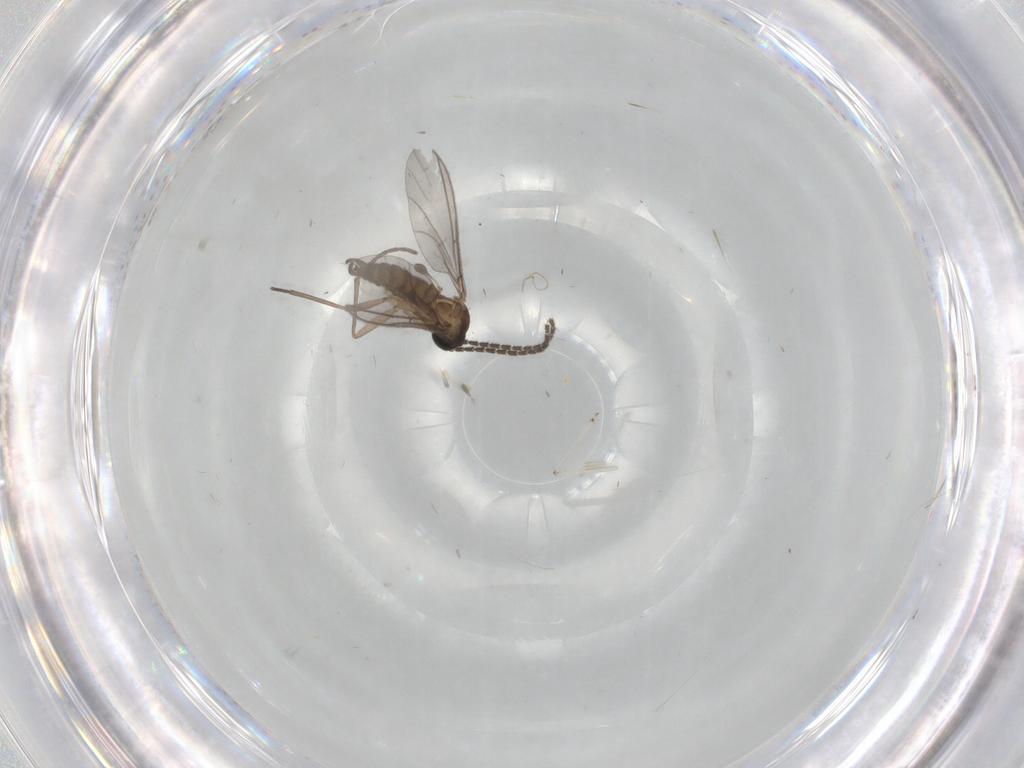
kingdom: Animalia
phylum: Arthropoda
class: Insecta
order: Diptera
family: Sciaridae
